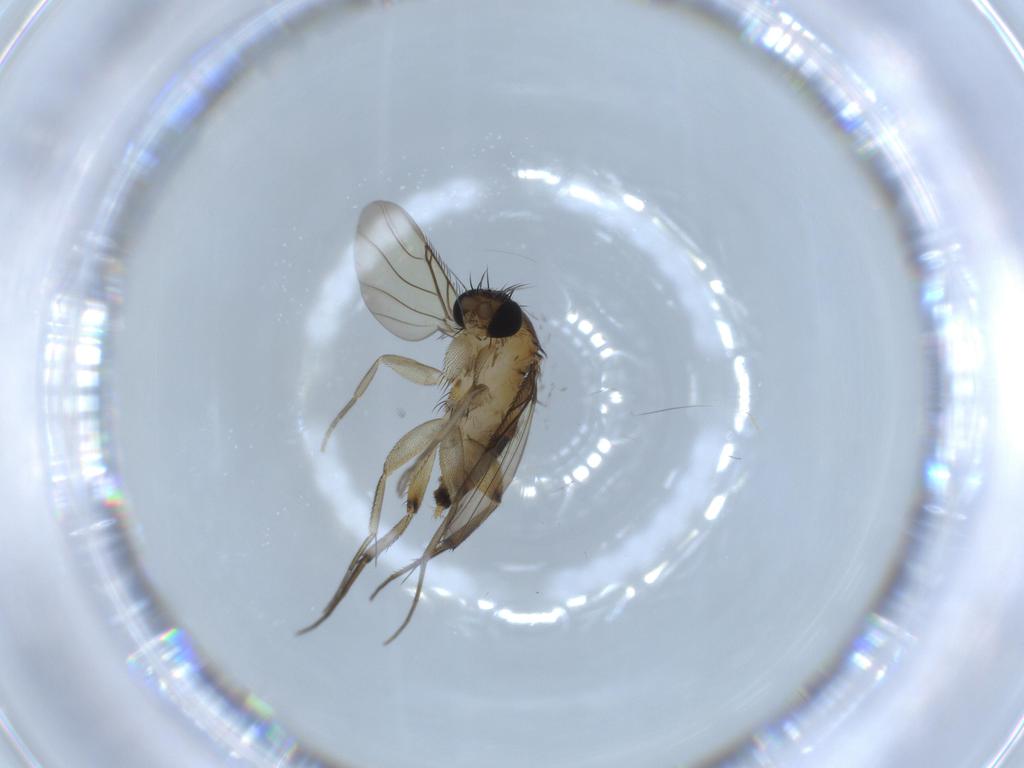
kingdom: Animalia
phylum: Arthropoda
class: Insecta
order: Diptera
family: Phoridae
